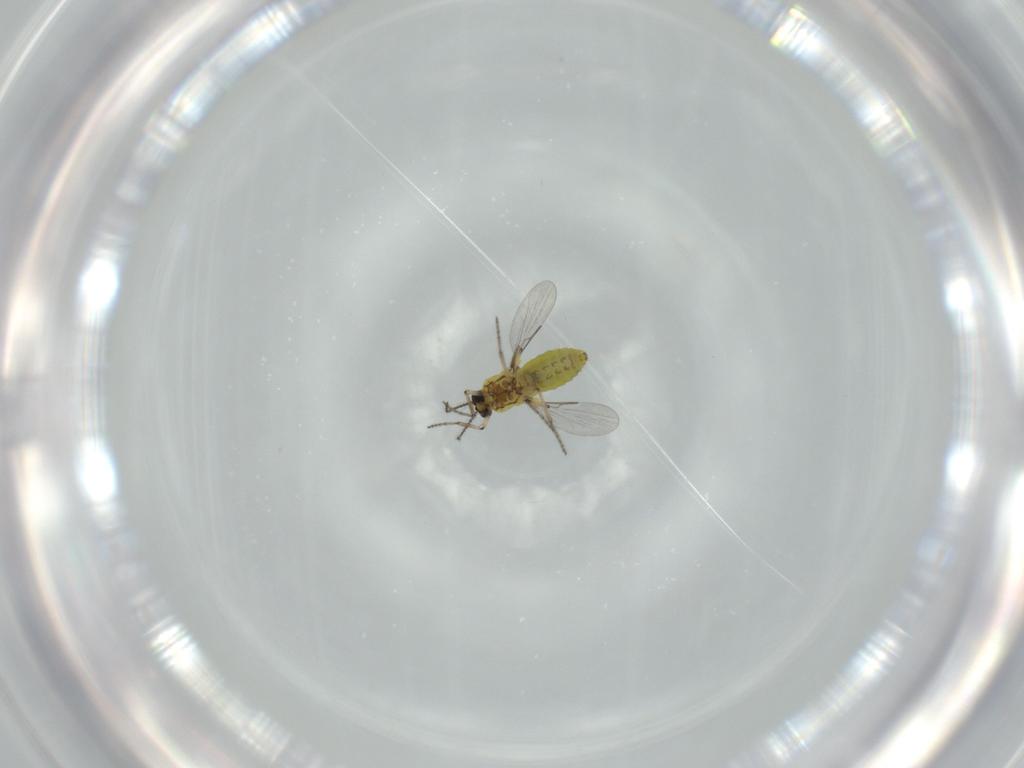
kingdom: Animalia
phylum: Arthropoda
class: Insecta
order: Diptera
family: Ceratopogonidae
